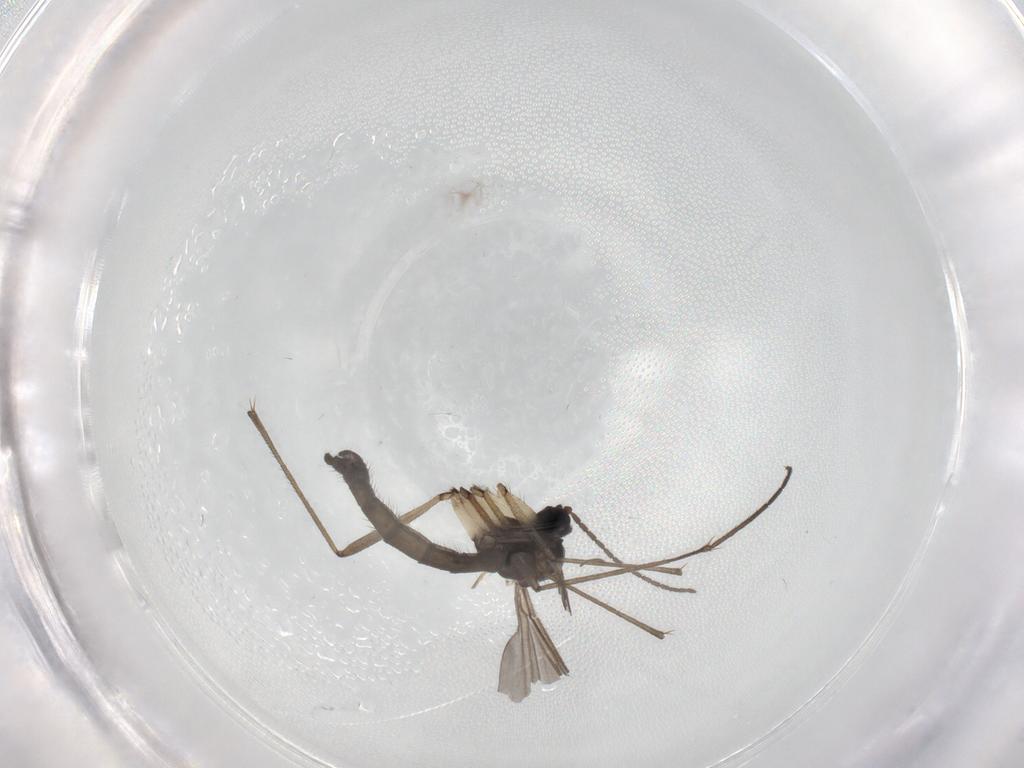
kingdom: Animalia
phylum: Arthropoda
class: Insecta
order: Diptera
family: Sciaridae
